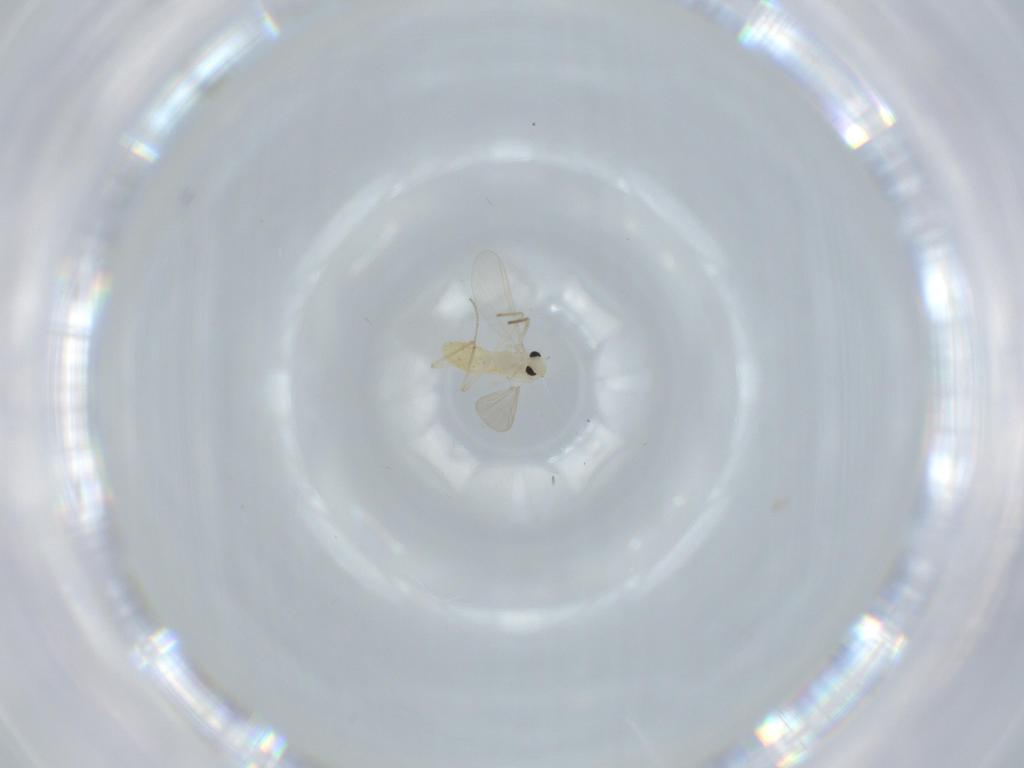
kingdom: Animalia
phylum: Arthropoda
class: Insecta
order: Diptera
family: Chironomidae
